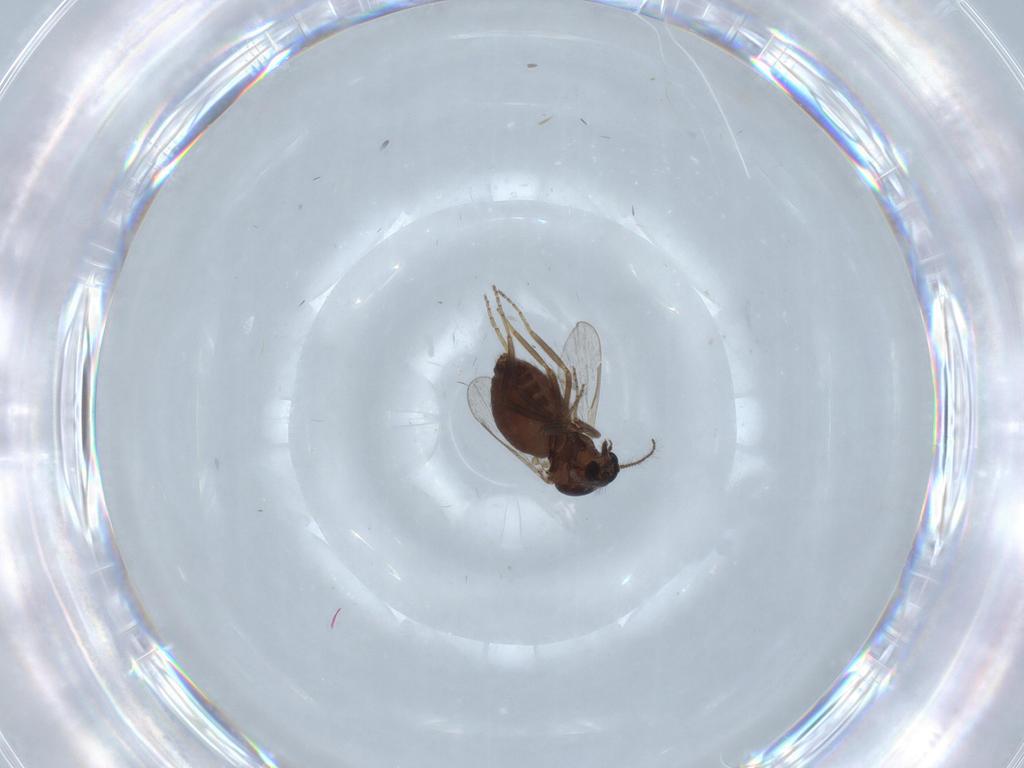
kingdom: Animalia
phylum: Arthropoda
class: Insecta
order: Diptera
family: Ceratopogonidae
